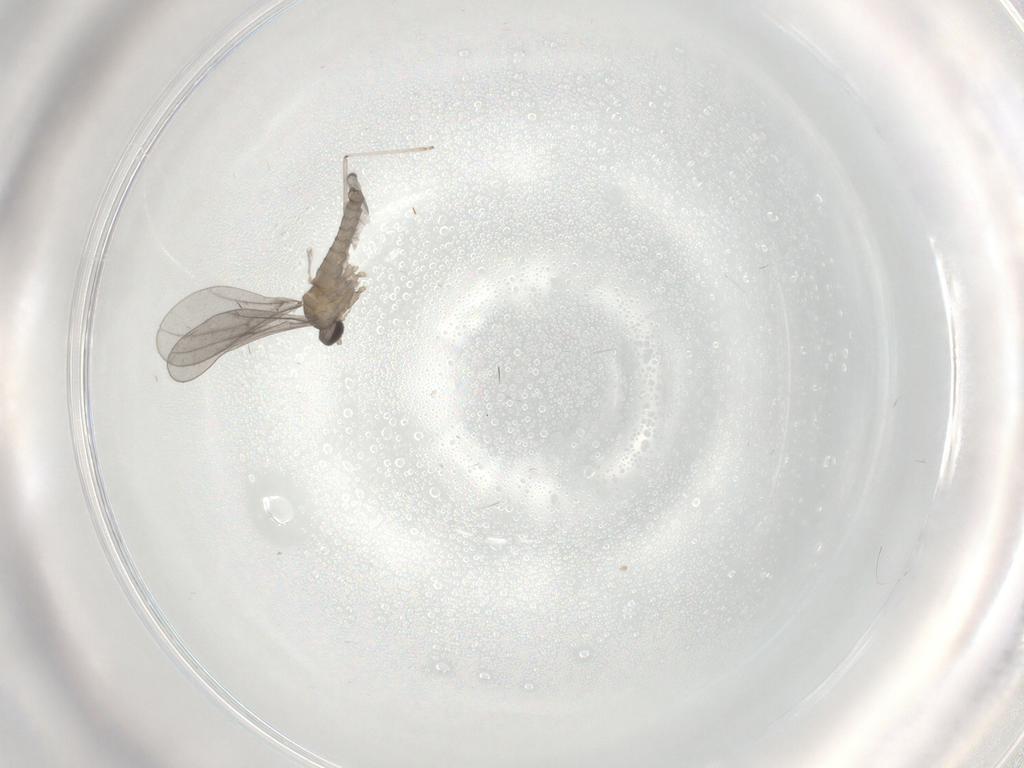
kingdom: Animalia
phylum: Arthropoda
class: Insecta
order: Diptera
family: Cecidomyiidae
